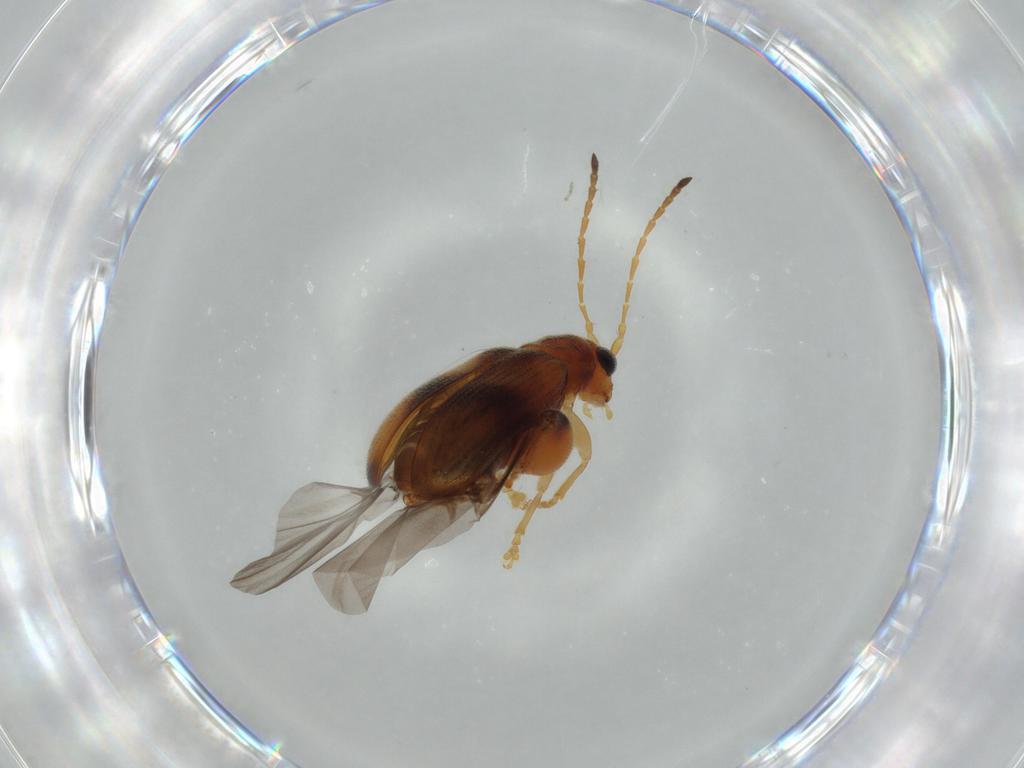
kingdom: Animalia
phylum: Arthropoda
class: Insecta
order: Coleoptera
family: Chrysomelidae
